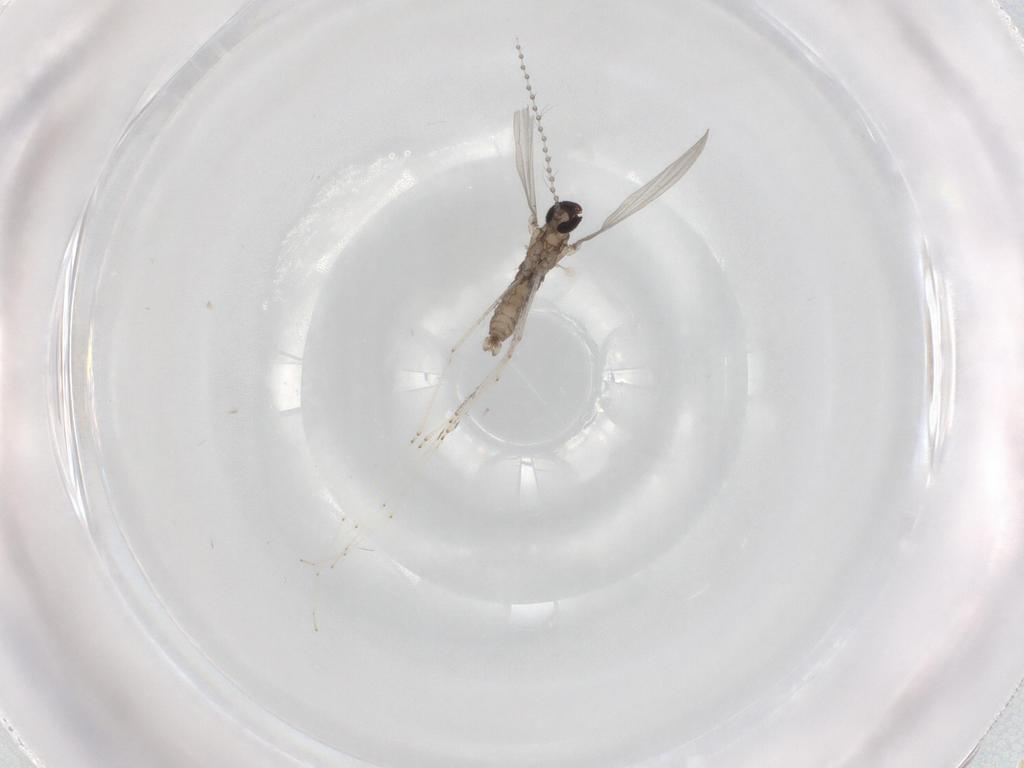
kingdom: Animalia
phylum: Arthropoda
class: Insecta
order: Diptera
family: Cecidomyiidae
